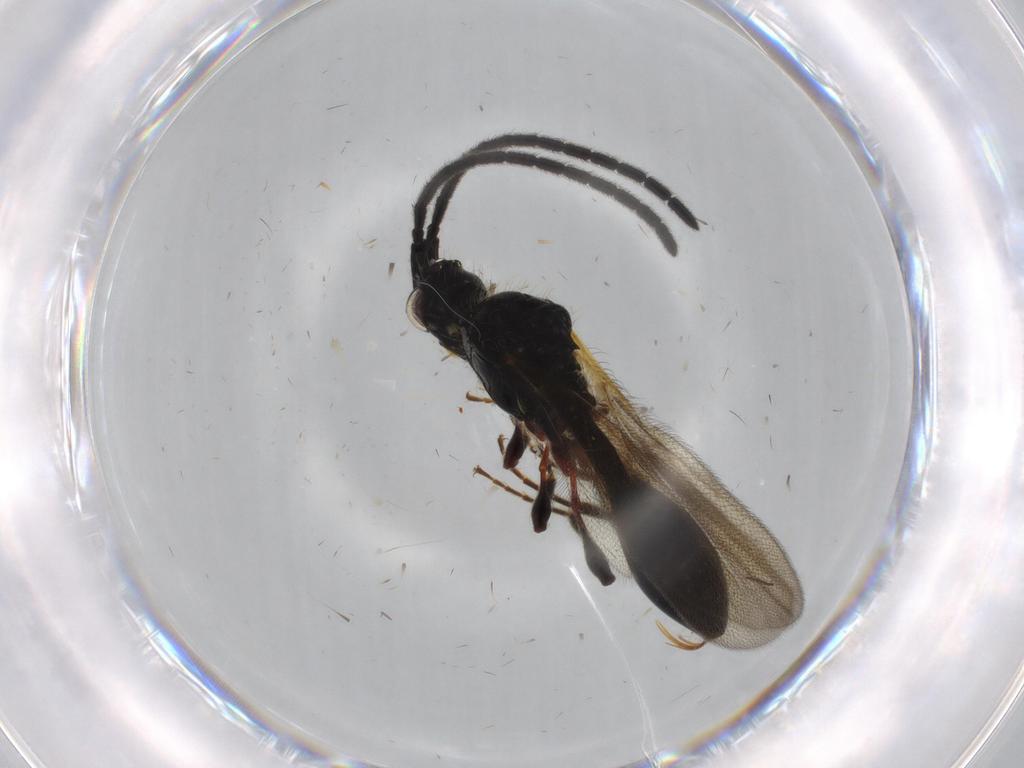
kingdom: Animalia
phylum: Arthropoda
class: Insecta
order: Hymenoptera
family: Diapriidae
